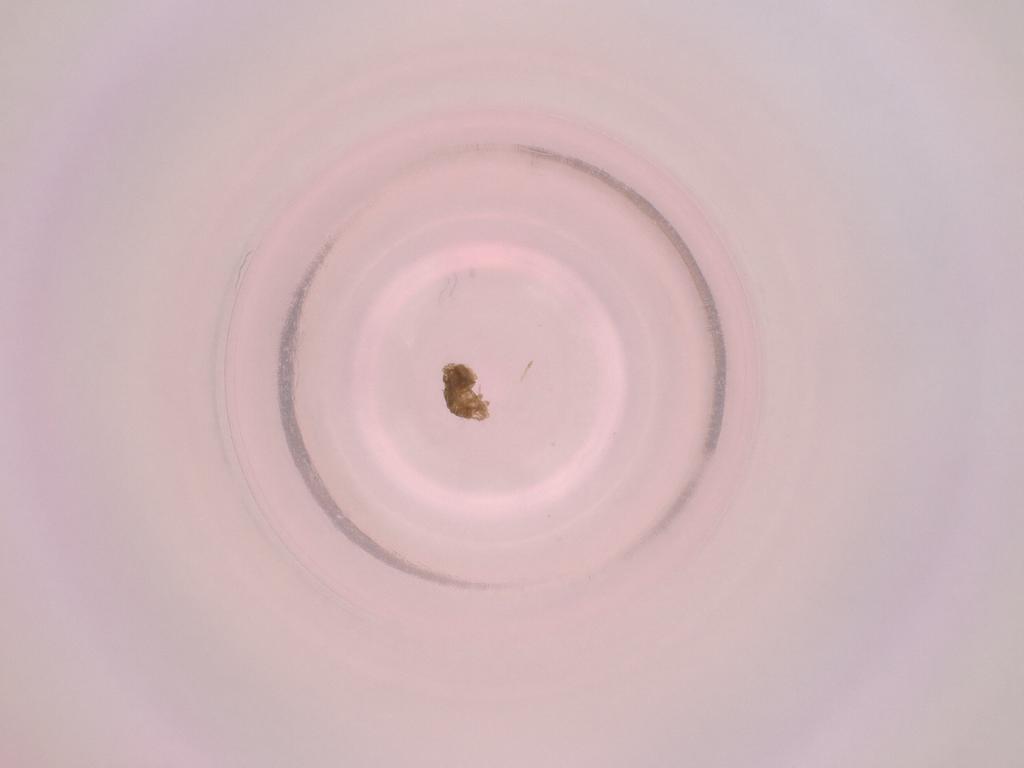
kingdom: Animalia
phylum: Arthropoda
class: Insecta
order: Diptera
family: Cecidomyiidae
